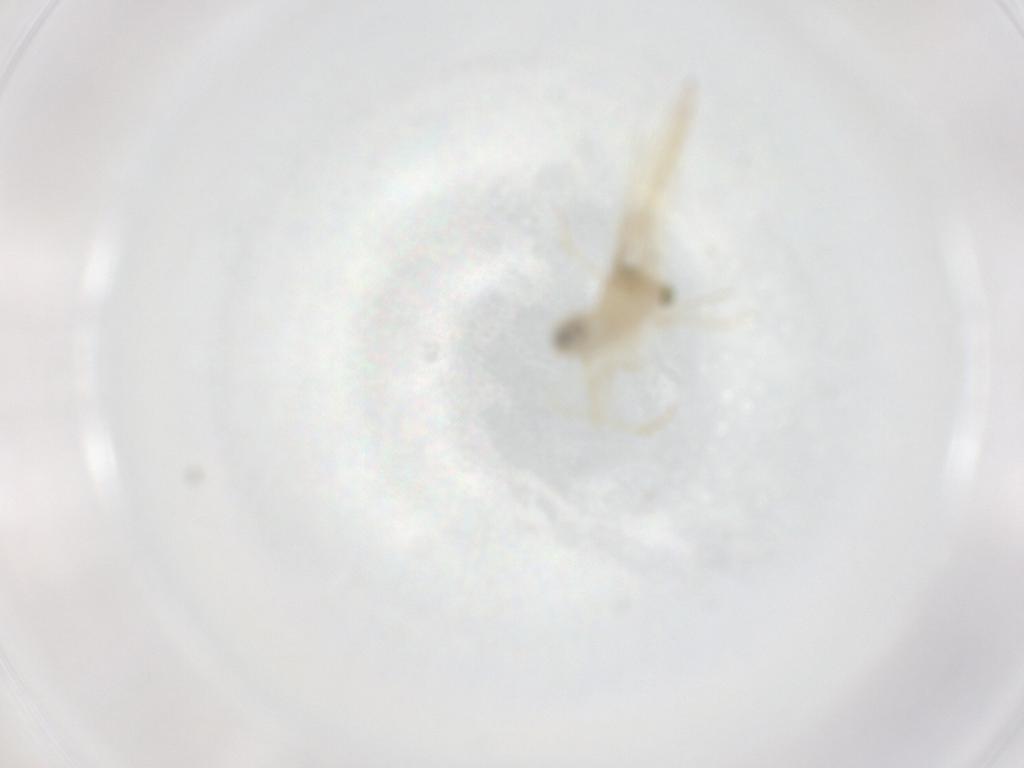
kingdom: Animalia
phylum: Arthropoda
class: Insecta
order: Psocodea
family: Lepidopsocidae
